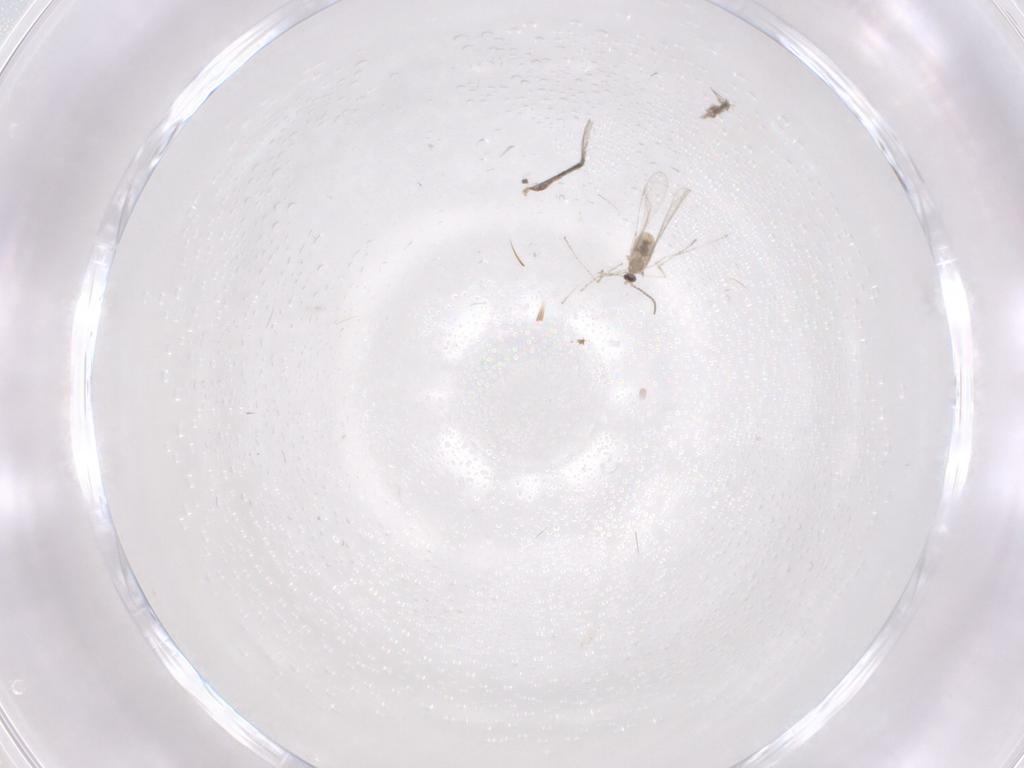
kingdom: Animalia
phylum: Arthropoda
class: Insecta
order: Diptera
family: Cecidomyiidae
